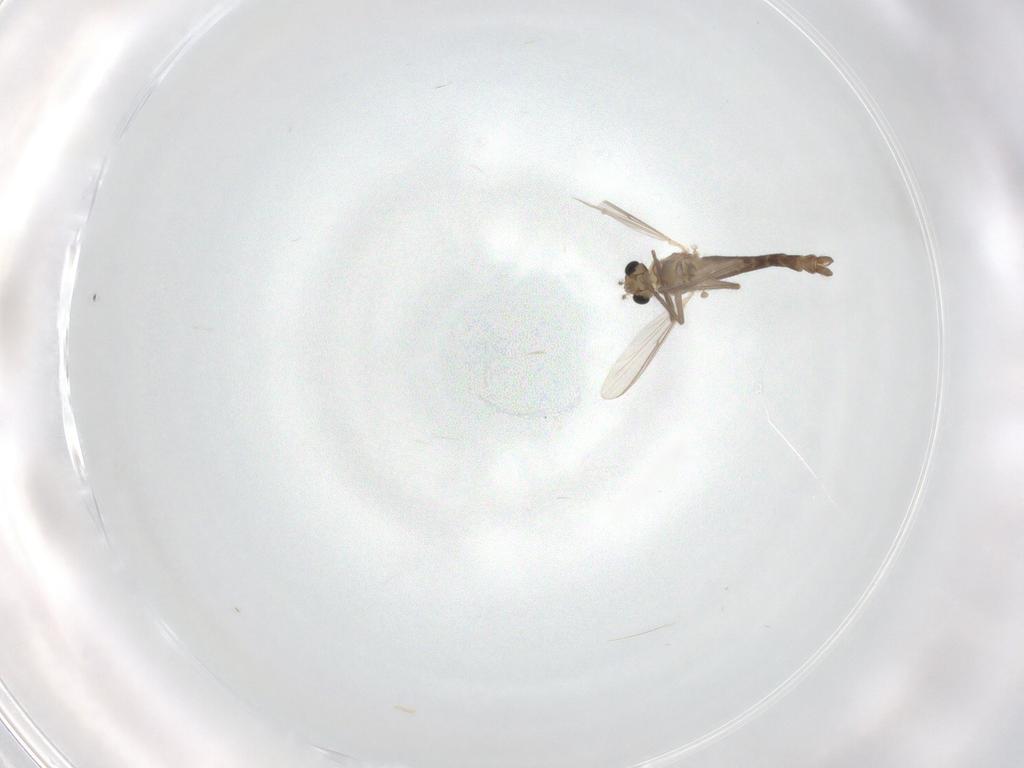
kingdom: Animalia
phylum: Arthropoda
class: Insecta
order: Diptera
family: Chironomidae
